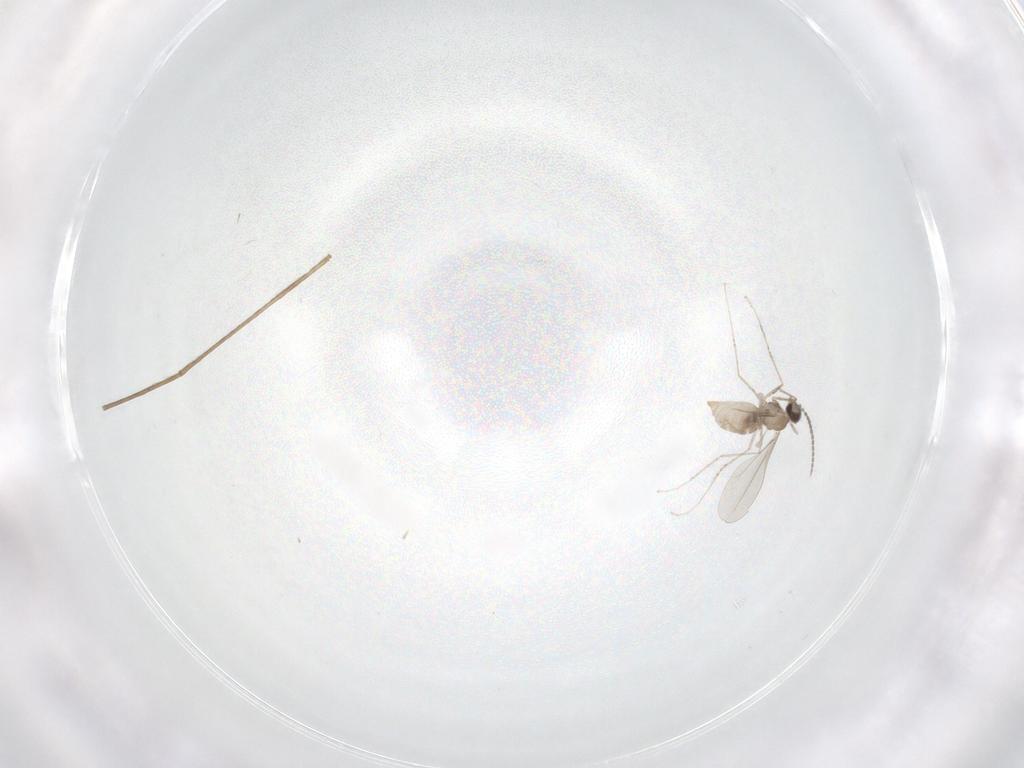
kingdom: Animalia
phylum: Arthropoda
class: Insecta
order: Diptera
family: Cecidomyiidae
